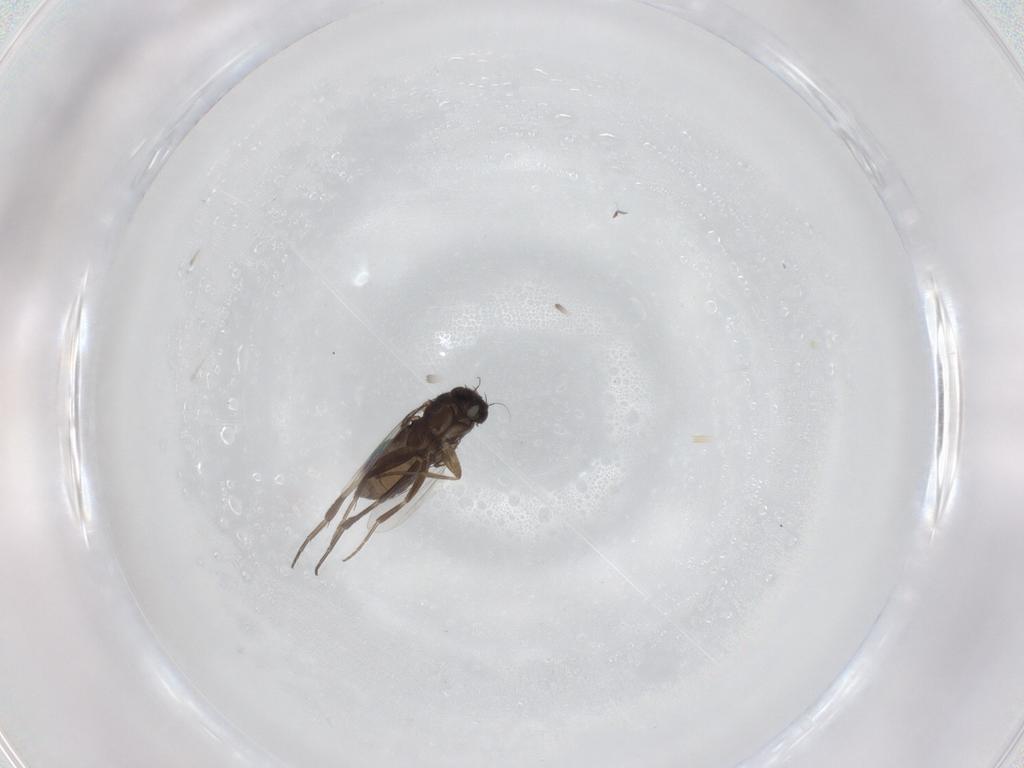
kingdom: Animalia
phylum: Arthropoda
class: Insecta
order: Diptera
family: Phoridae
